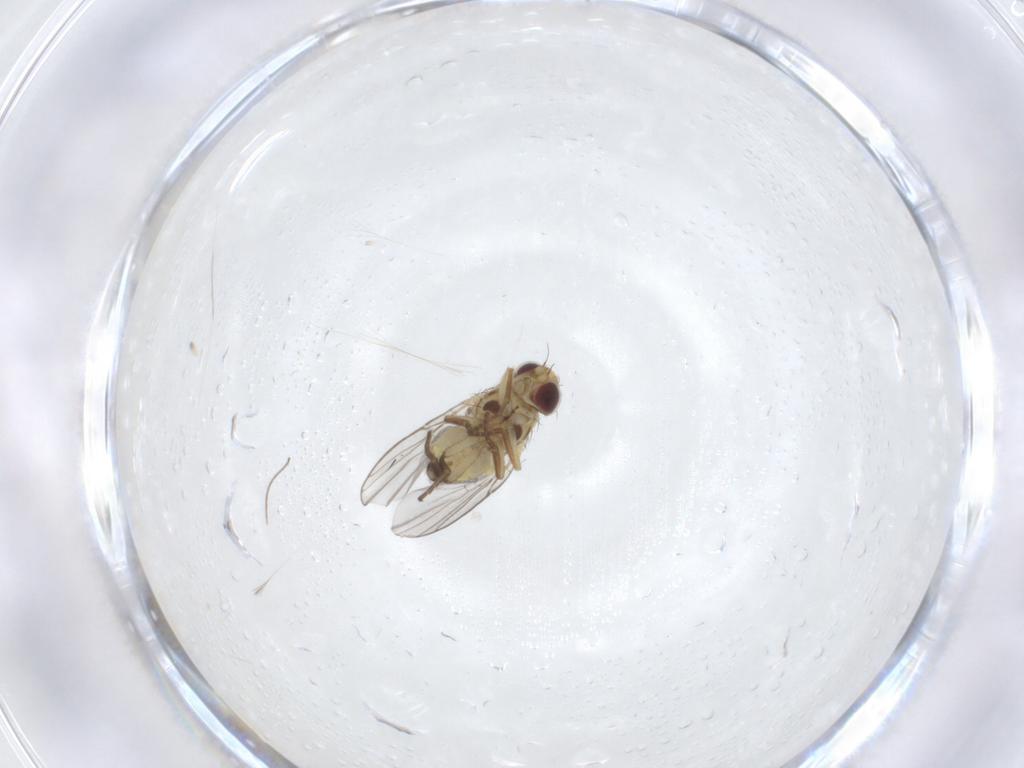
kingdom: Animalia
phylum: Arthropoda
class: Insecta
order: Diptera
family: Agromyzidae
